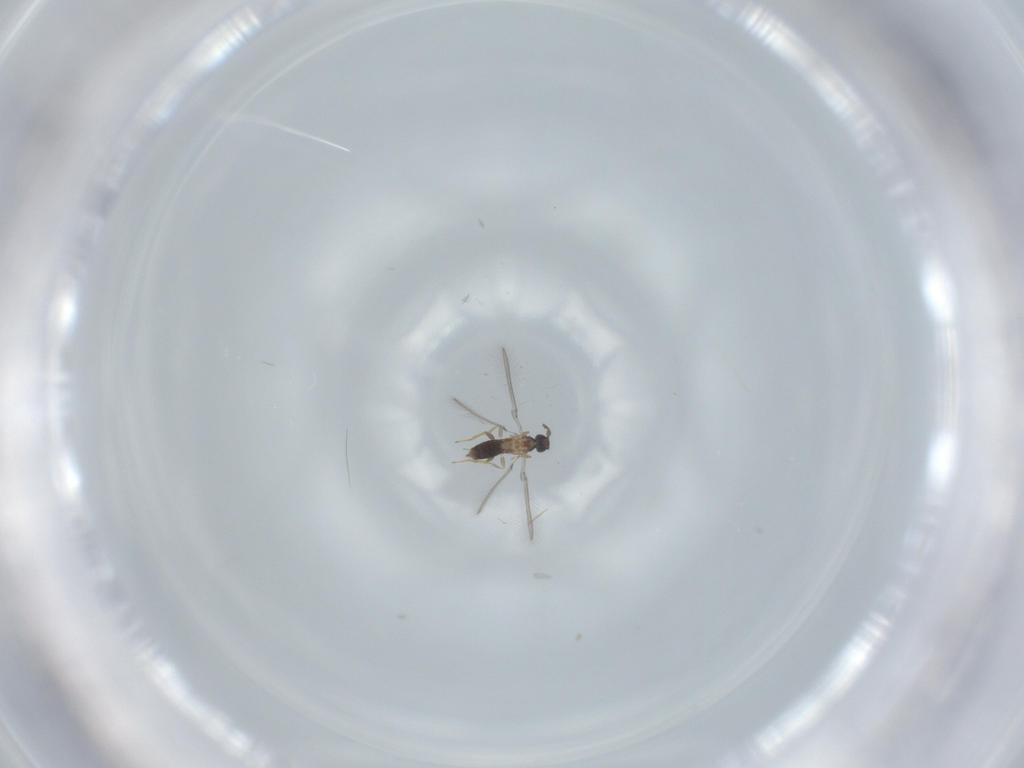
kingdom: Animalia
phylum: Arthropoda
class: Insecta
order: Hymenoptera
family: Mymaridae
